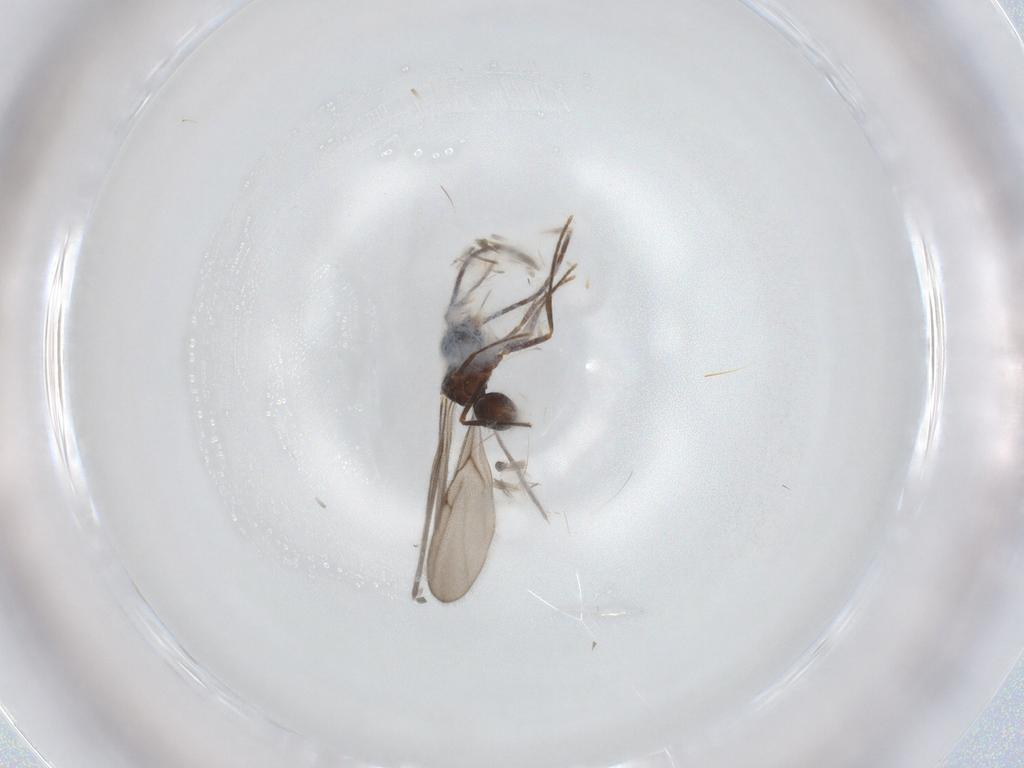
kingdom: Animalia
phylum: Arthropoda
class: Insecta
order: Hymenoptera
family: Formicidae
